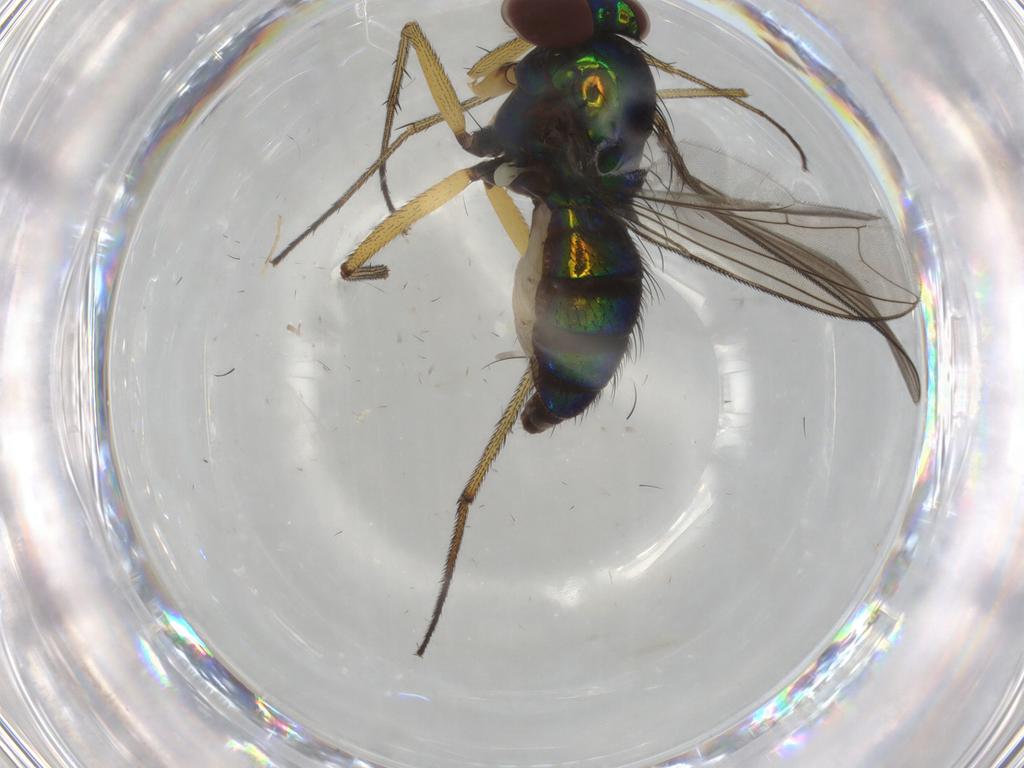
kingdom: Animalia
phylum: Arthropoda
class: Insecta
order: Diptera
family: Dolichopodidae
